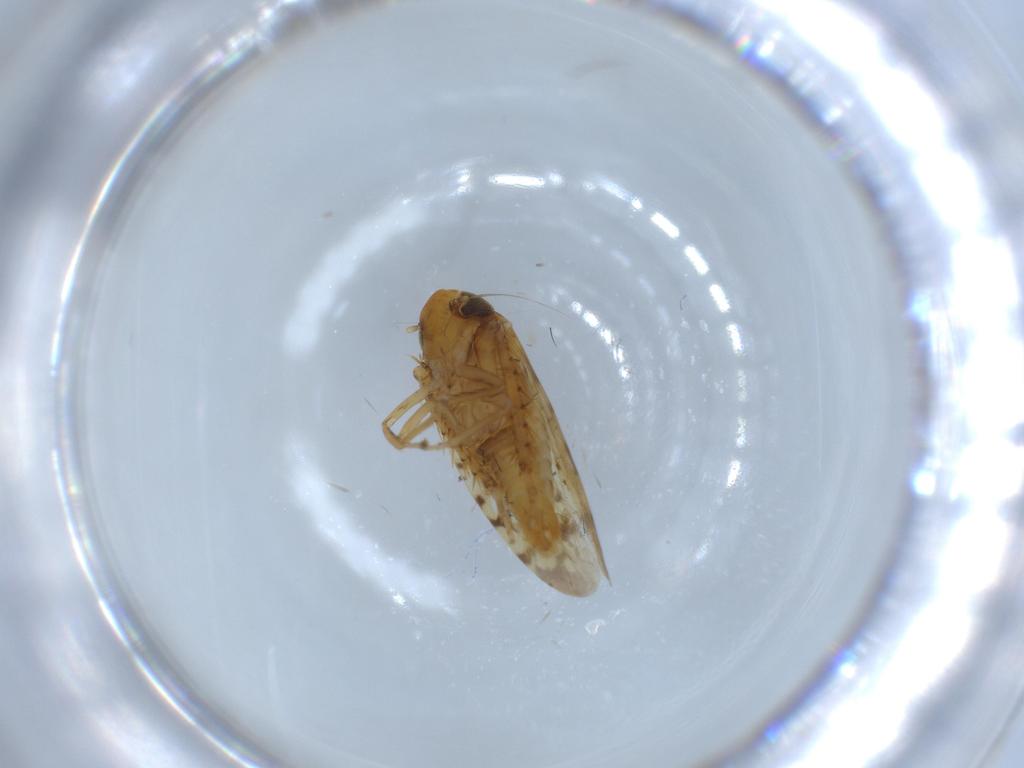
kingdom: Animalia
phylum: Arthropoda
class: Insecta
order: Hemiptera
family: Cicadellidae
